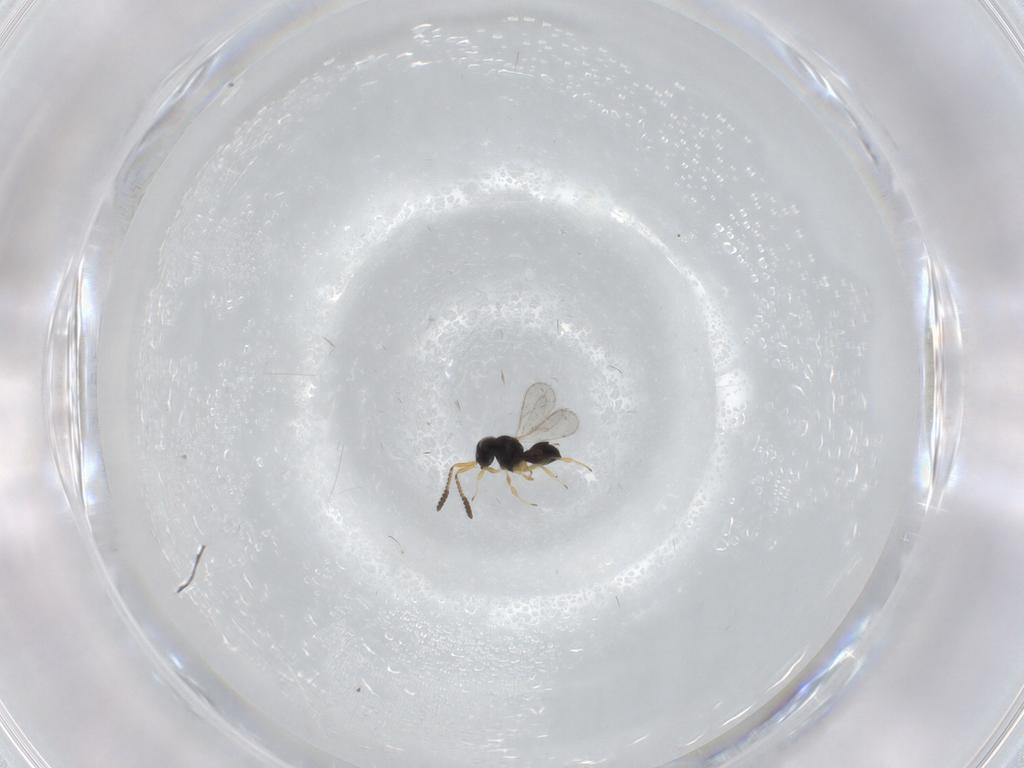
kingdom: Animalia
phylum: Arthropoda
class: Insecta
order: Hymenoptera
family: Scelionidae
